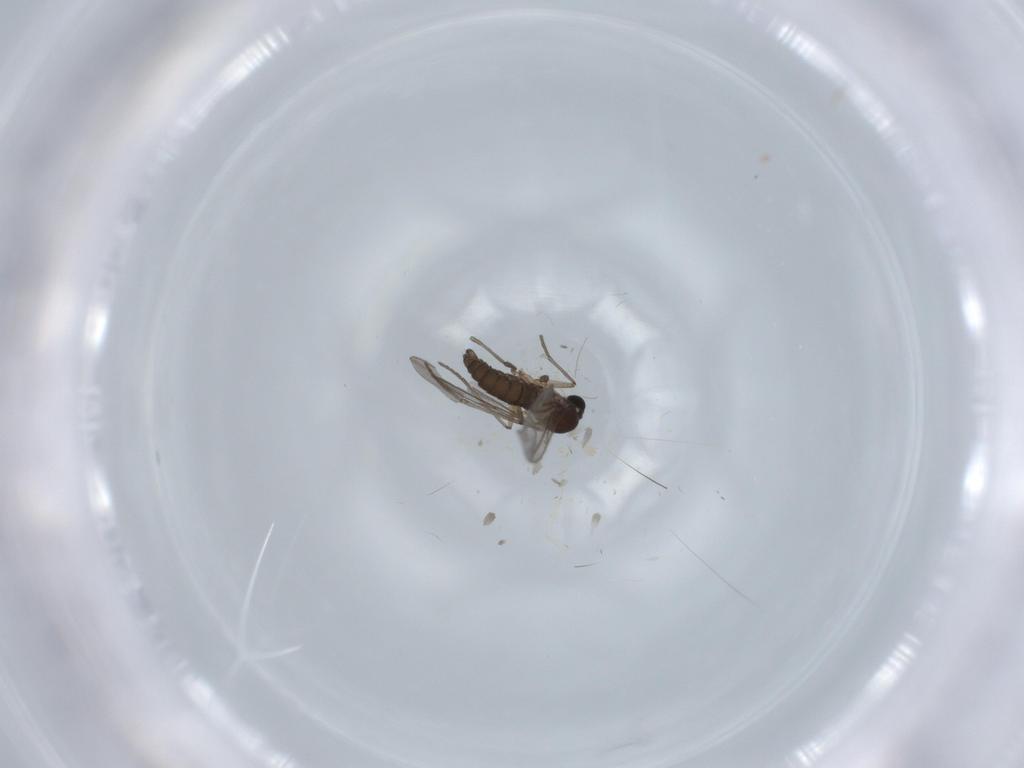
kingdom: Animalia
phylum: Arthropoda
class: Insecta
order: Diptera
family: Sciaridae
